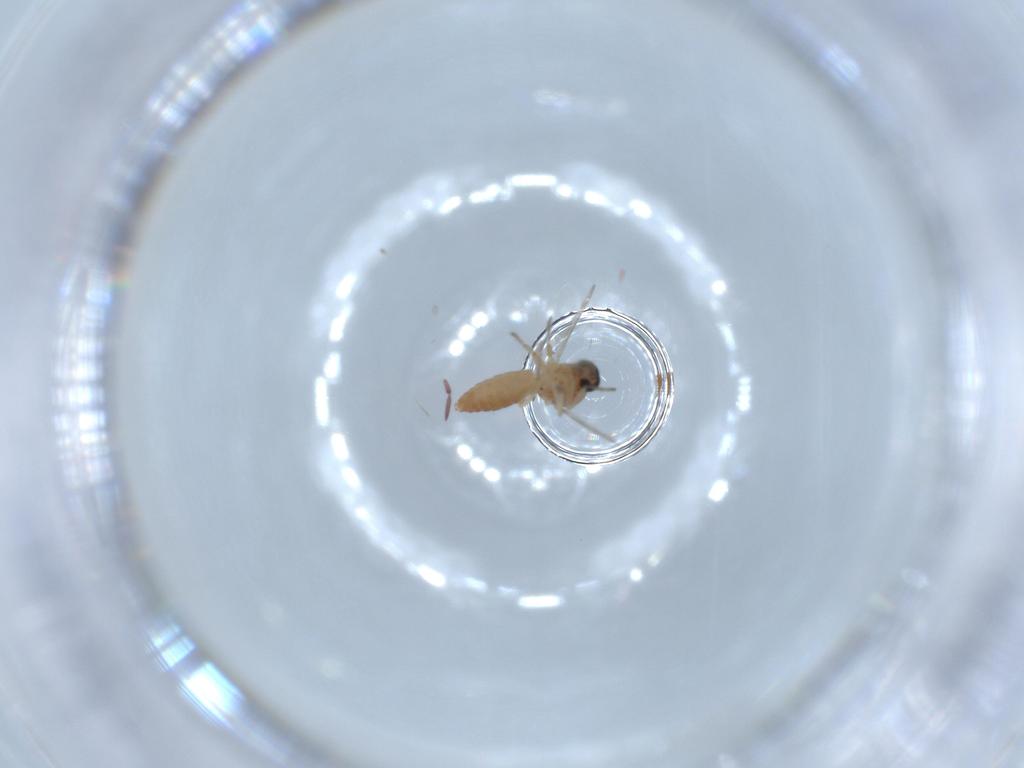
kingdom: Animalia
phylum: Arthropoda
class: Insecta
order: Diptera
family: Ceratopogonidae
